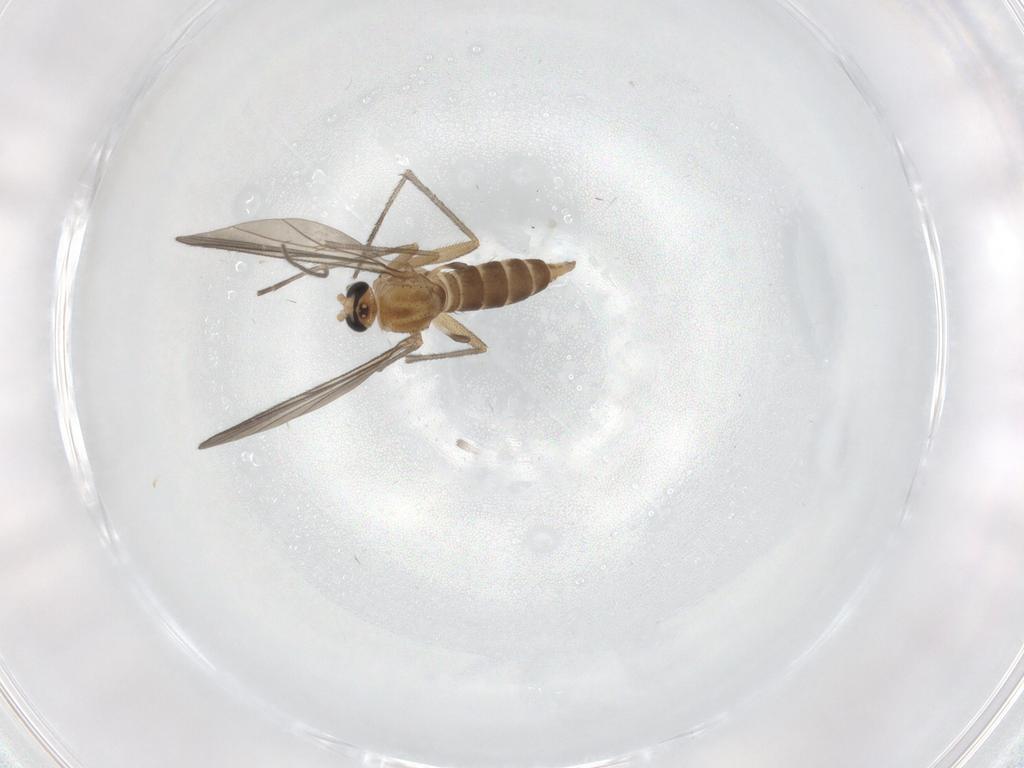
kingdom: Animalia
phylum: Arthropoda
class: Insecta
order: Diptera
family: Sciaridae
